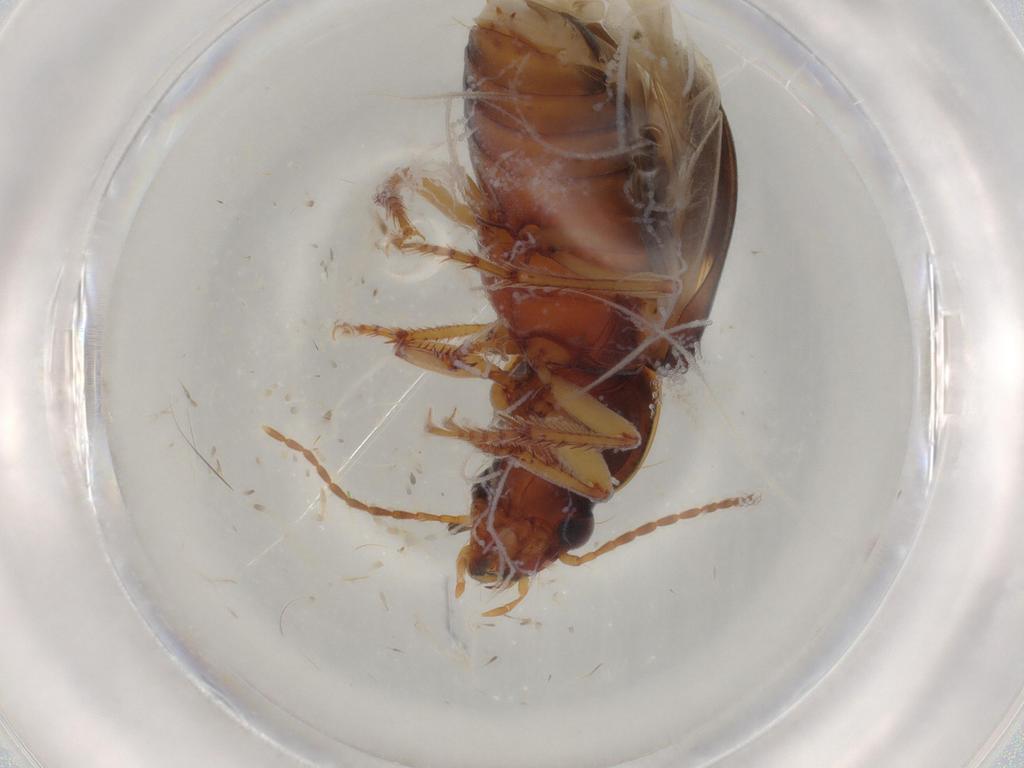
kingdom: Animalia
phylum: Arthropoda
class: Insecta
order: Coleoptera
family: Carabidae
